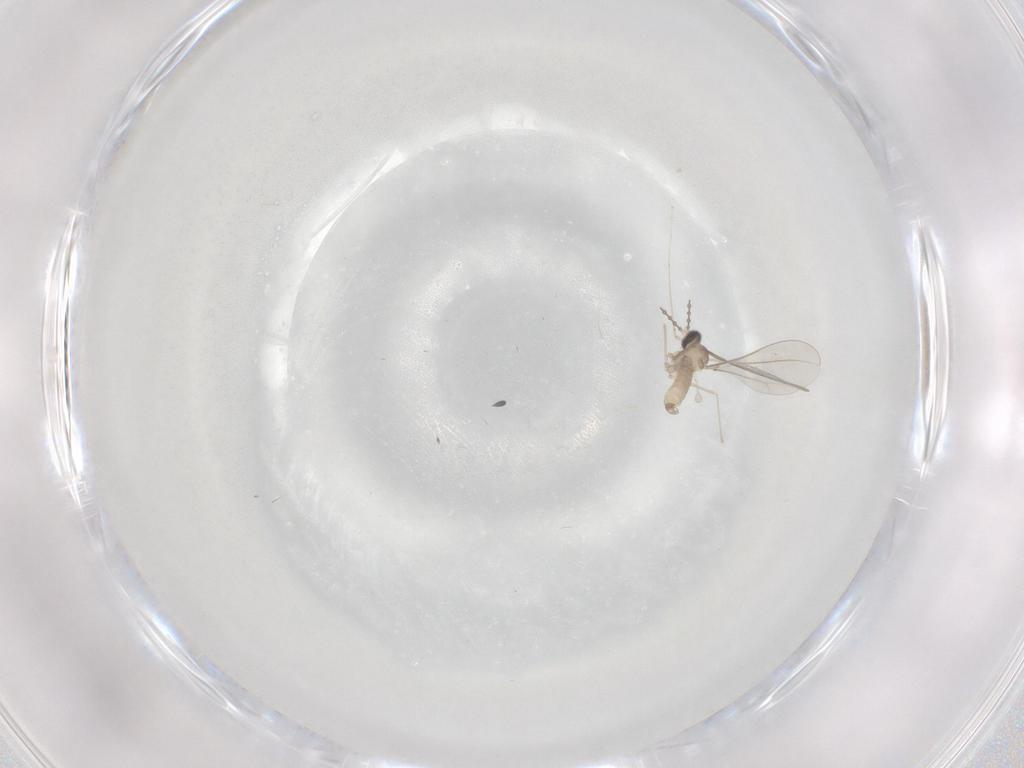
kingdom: Animalia
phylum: Arthropoda
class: Insecta
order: Diptera
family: Cecidomyiidae
